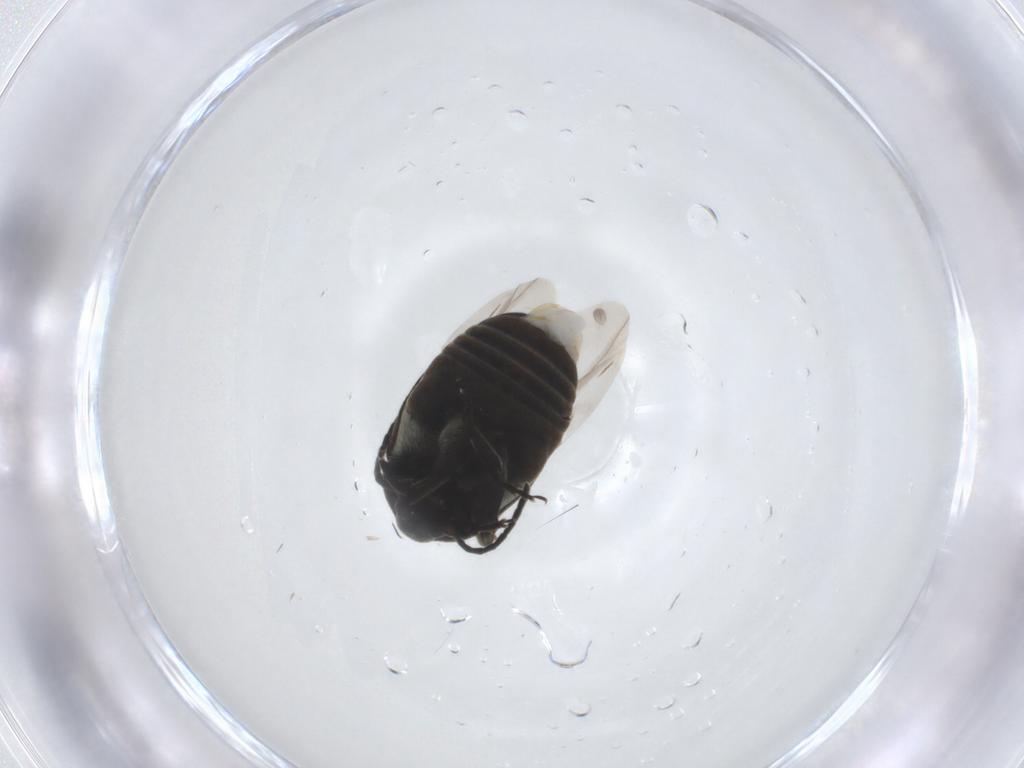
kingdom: Animalia
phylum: Arthropoda
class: Insecta
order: Coleoptera
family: Chrysomelidae
